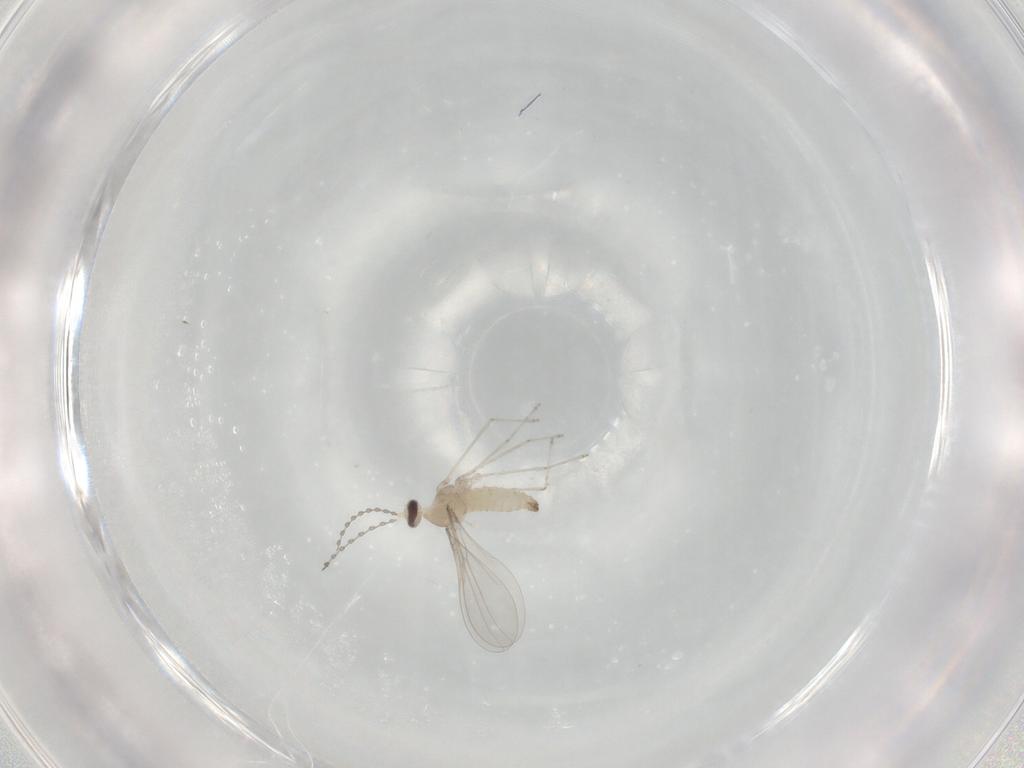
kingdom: Animalia
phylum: Arthropoda
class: Insecta
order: Diptera
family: Cecidomyiidae
